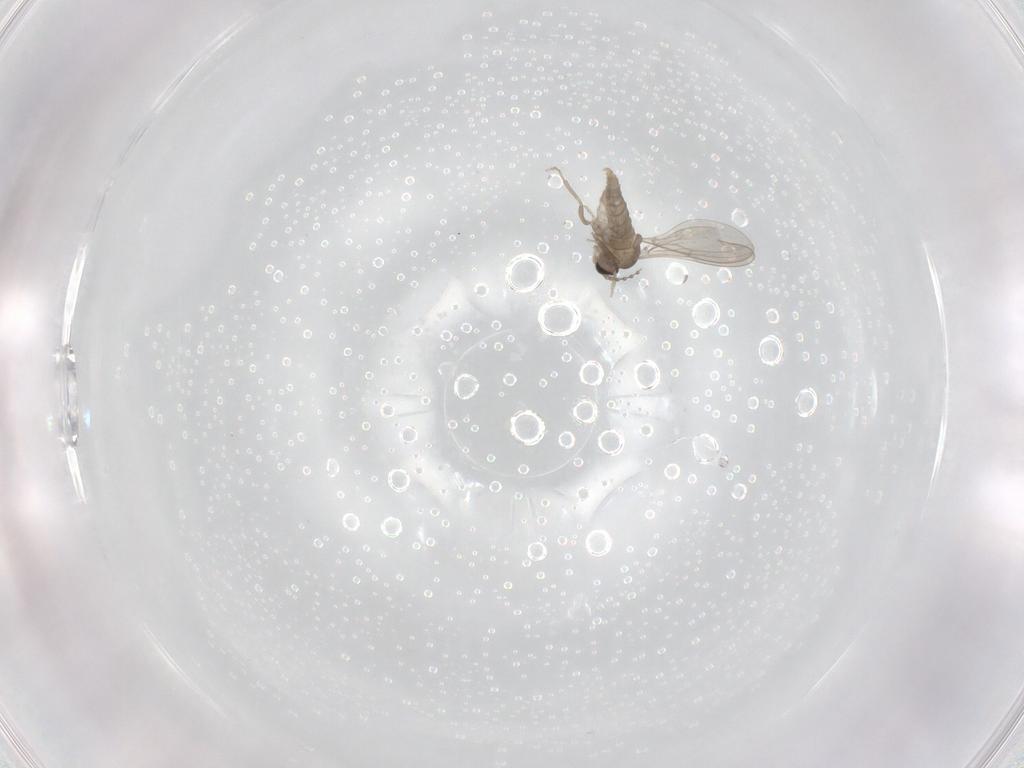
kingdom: Animalia
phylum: Arthropoda
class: Insecta
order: Diptera
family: Cecidomyiidae
